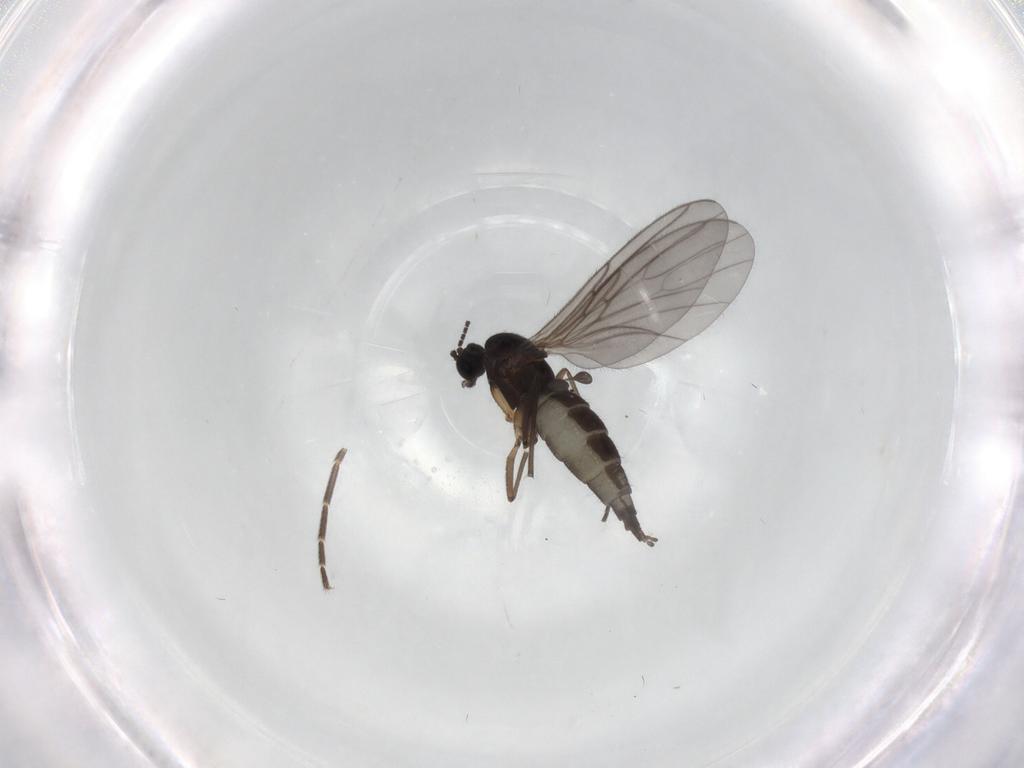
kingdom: Animalia
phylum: Arthropoda
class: Insecta
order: Diptera
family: Sciaridae
